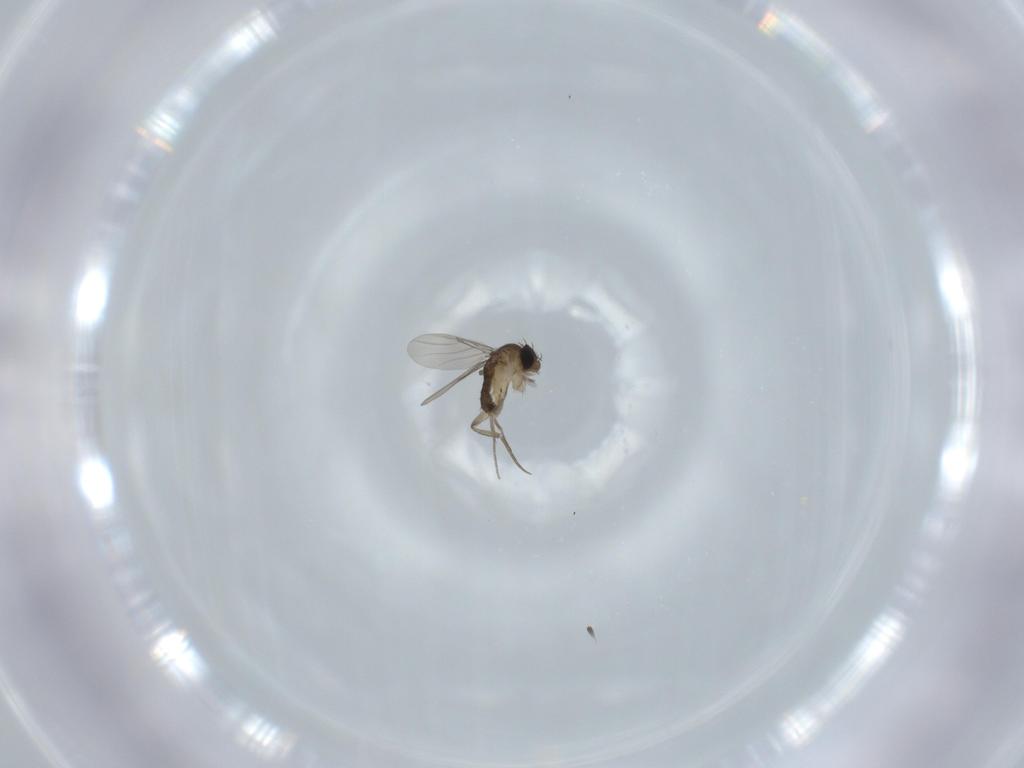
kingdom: Animalia
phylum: Arthropoda
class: Insecta
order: Diptera
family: Phoridae
